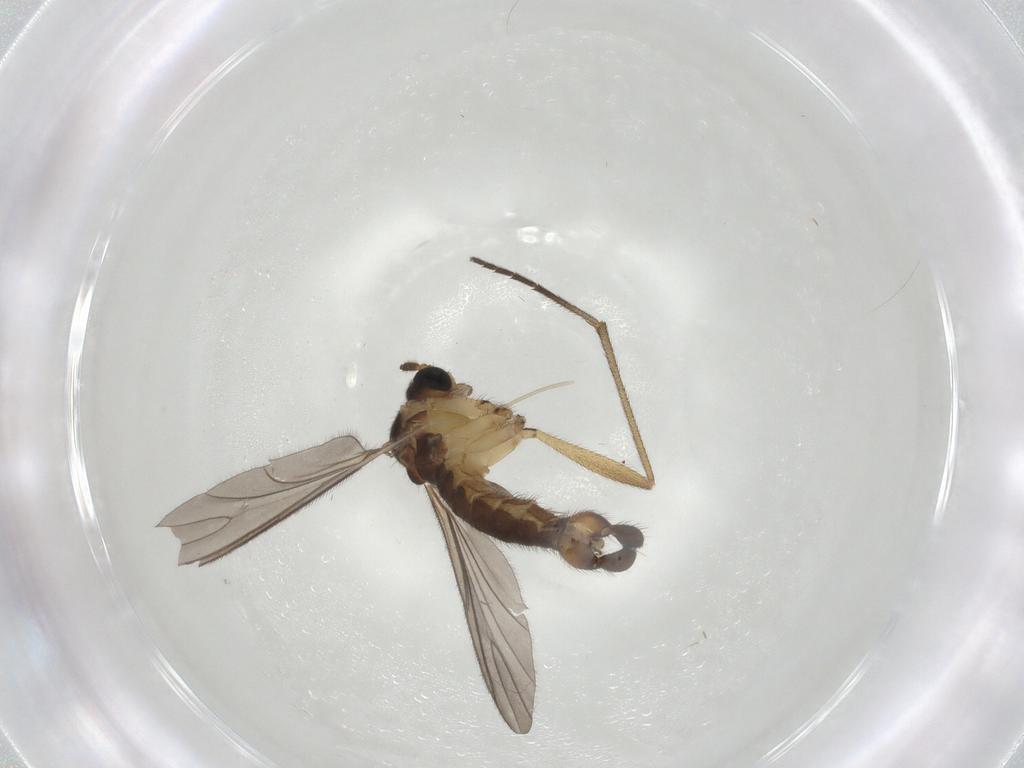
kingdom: Animalia
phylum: Arthropoda
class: Insecta
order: Diptera
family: Sciaridae
